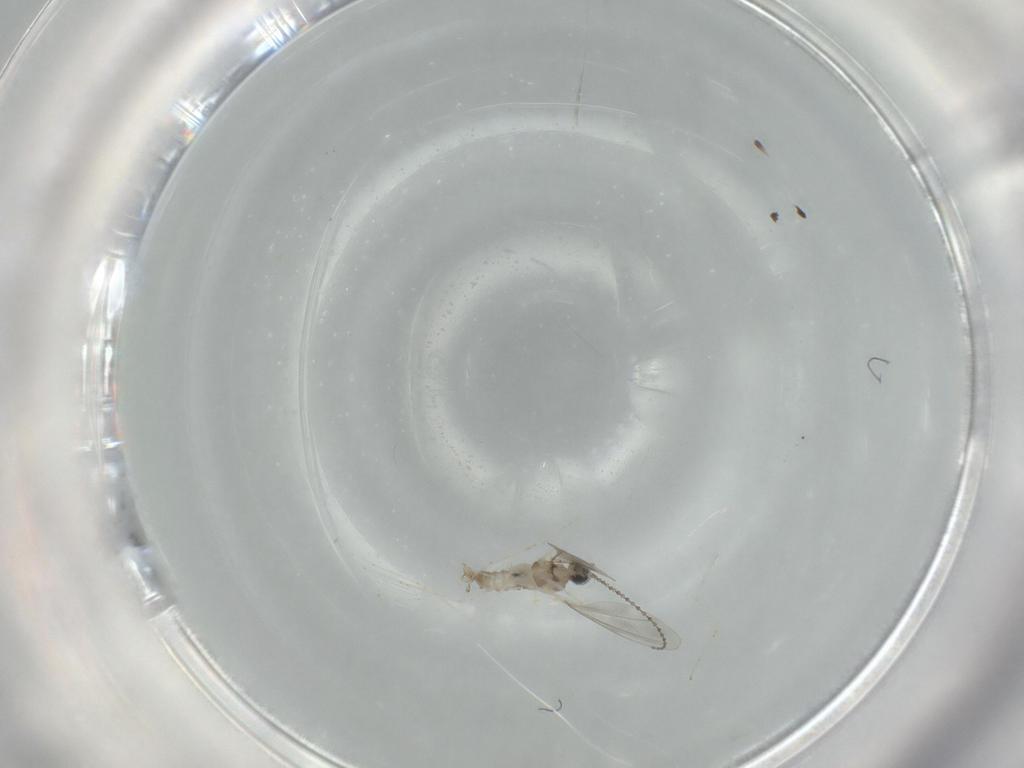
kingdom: Animalia
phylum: Arthropoda
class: Insecta
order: Diptera
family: Cecidomyiidae
